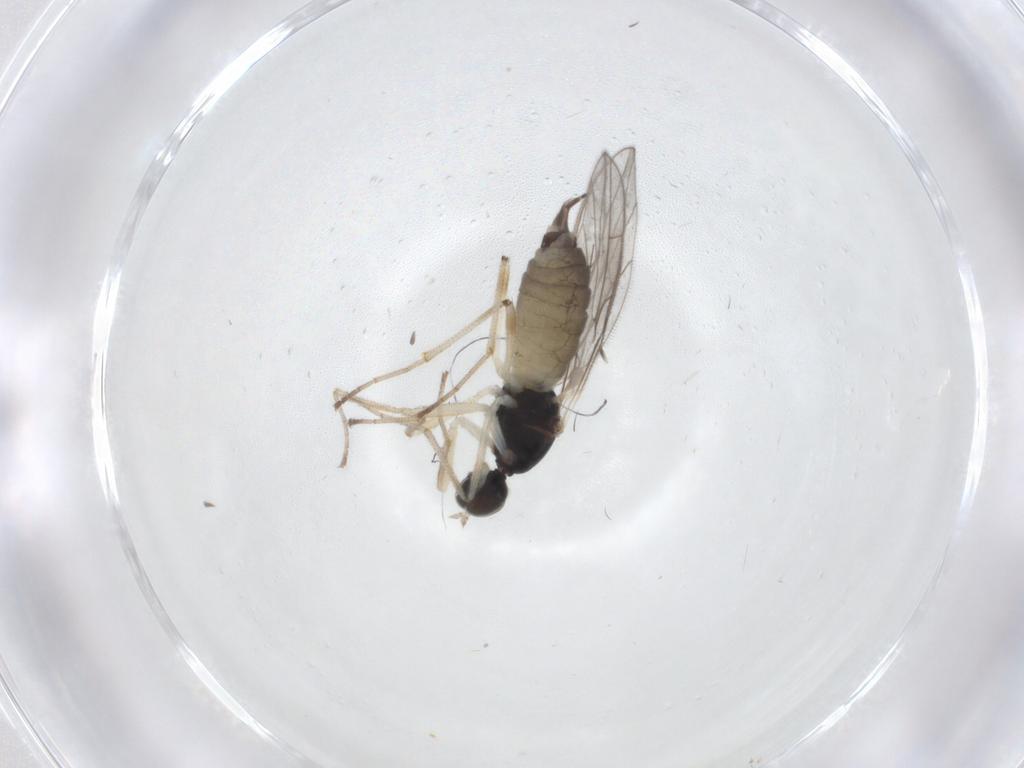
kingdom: Animalia
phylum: Arthropoda
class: Insecta
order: Diptera
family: Empididae
